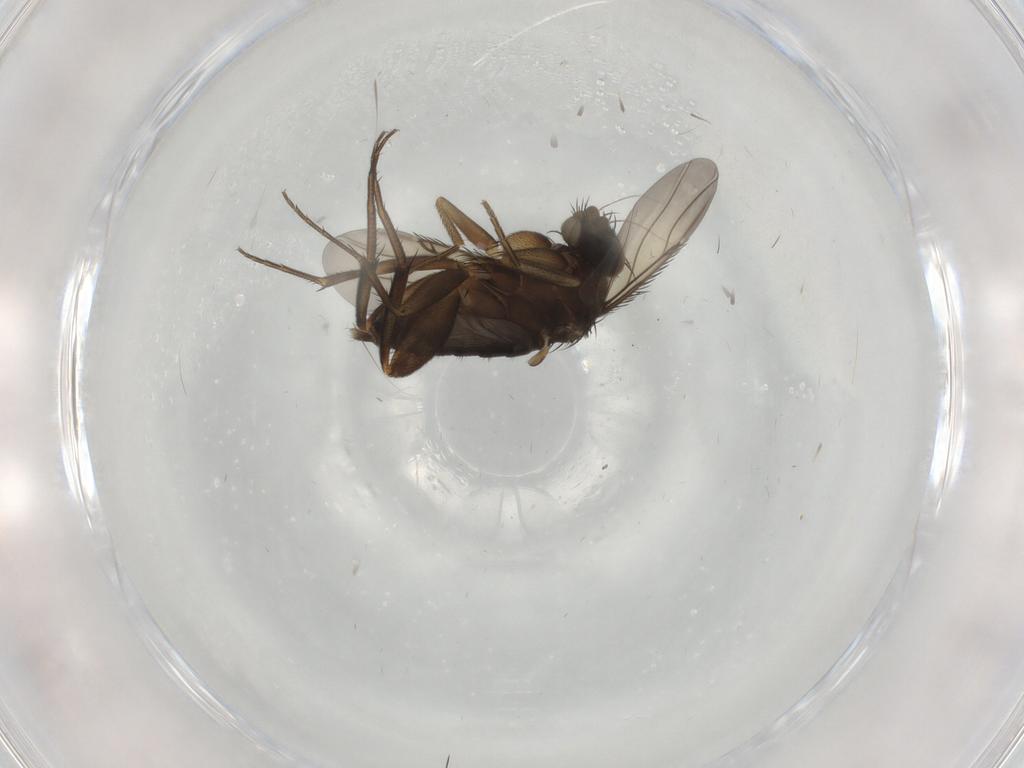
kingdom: Animalia
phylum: Arthropoda
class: Insecta
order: Diptera
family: Phoridae
